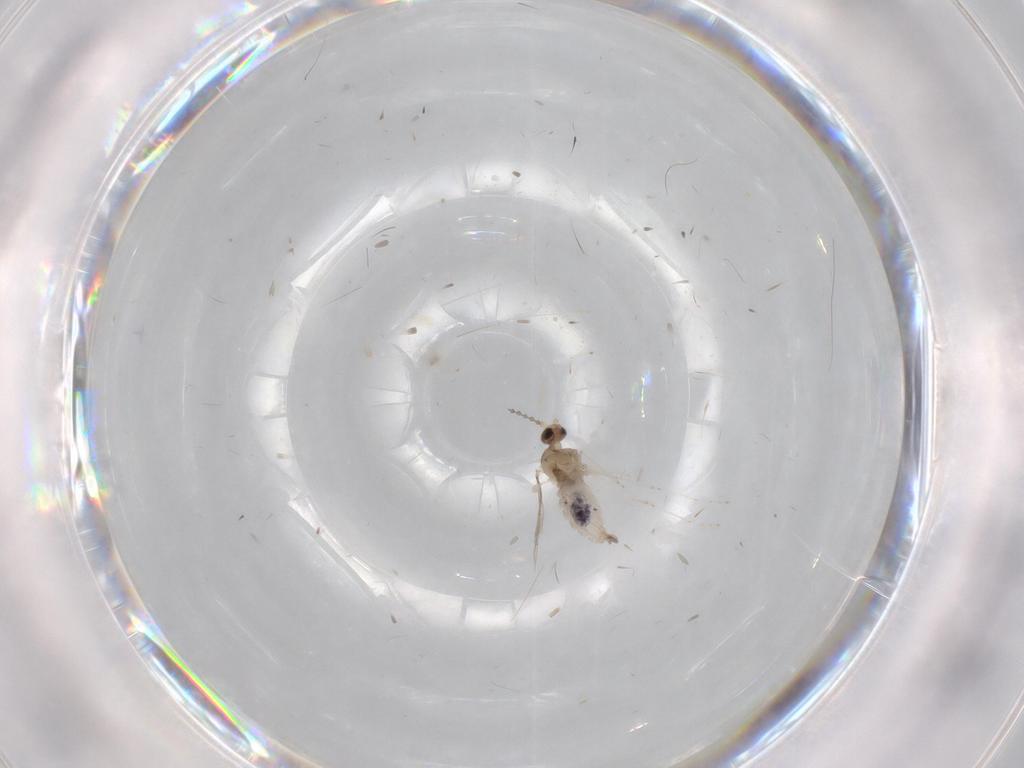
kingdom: Animalia
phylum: Arthropoda
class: Insecta
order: Diptera
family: Cecidomyiidae
